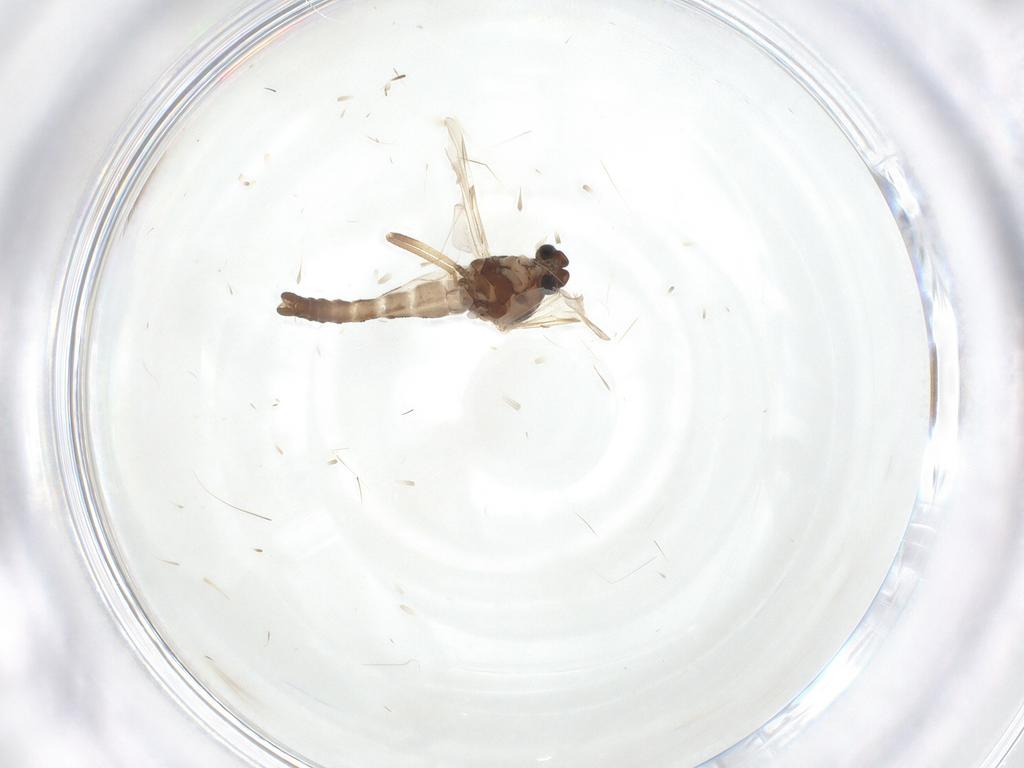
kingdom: Animalia
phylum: Arthropoda
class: Insecta
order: Diptera
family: Ceratopogonidae
